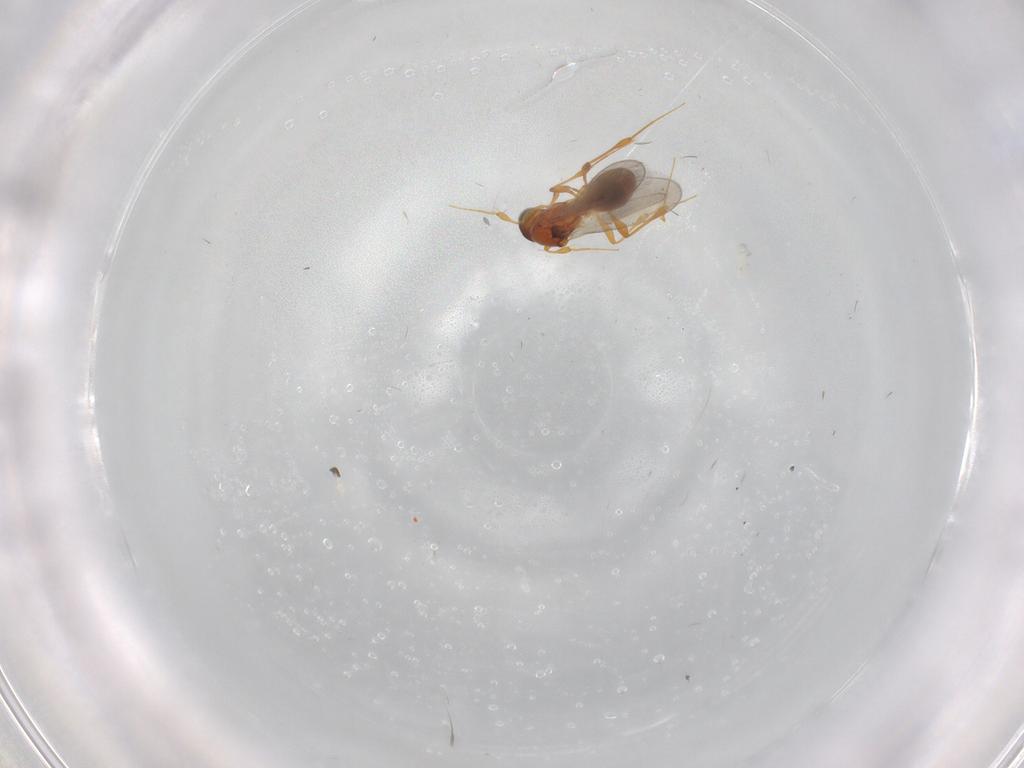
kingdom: Animalia
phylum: Arthropoda
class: Insecta
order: Hymenoptera
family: Platygastridae
